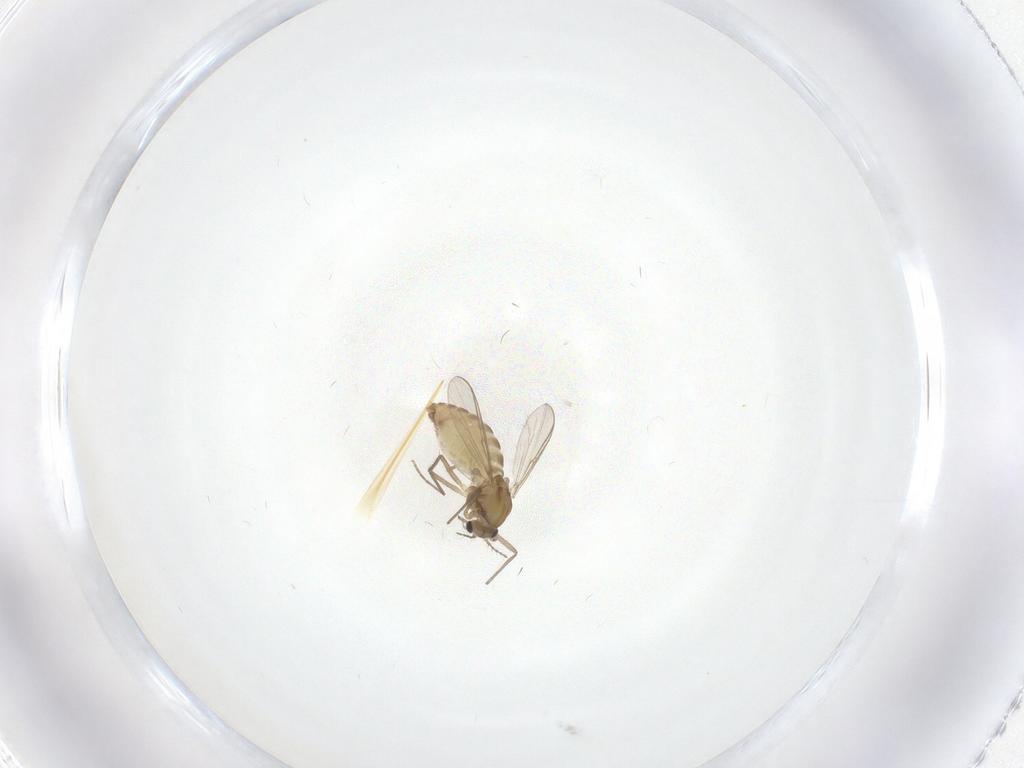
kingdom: Animalia
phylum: Arthropoda
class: Insecta
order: Diptera
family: Chironomidae
